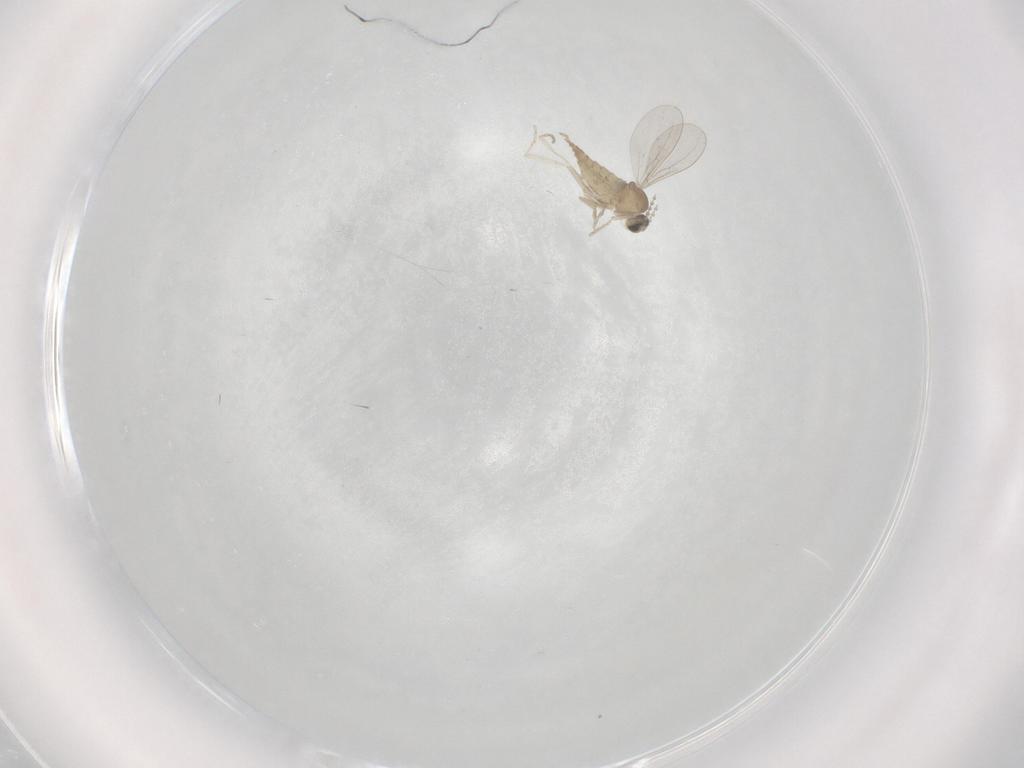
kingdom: Animalia
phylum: Arthropoda
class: Insecta
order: Diptera
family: Cecidomyiidae
